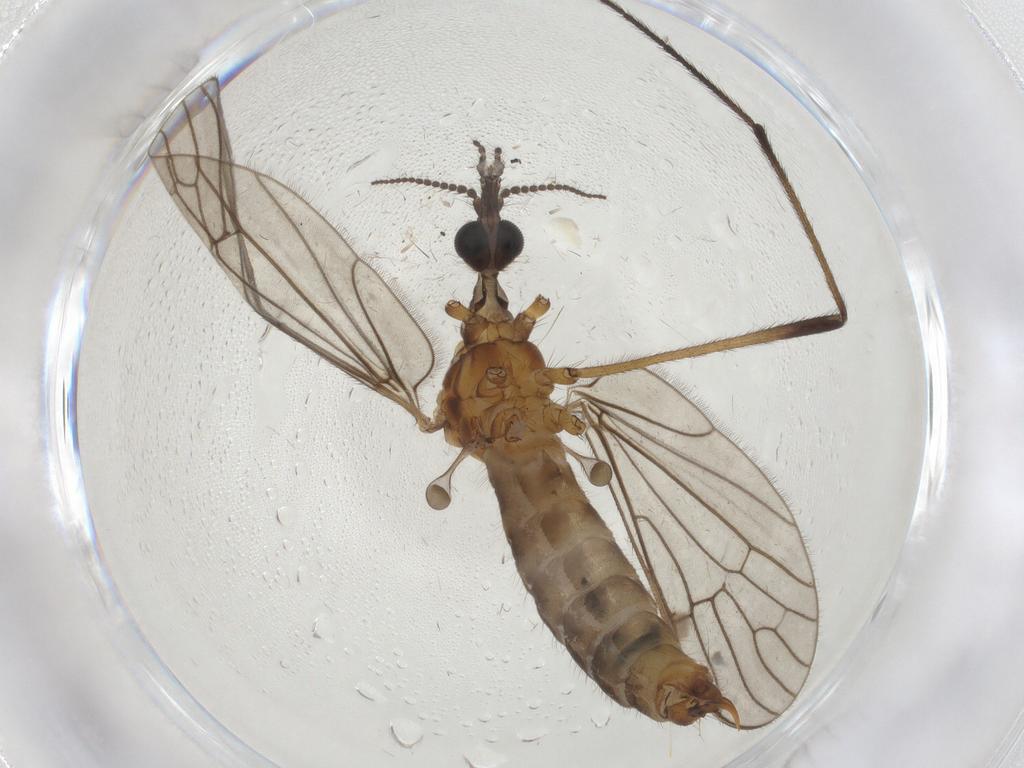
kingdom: Animalia
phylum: Arthropoda
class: Insecta
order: Diptera
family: Limoniidae
